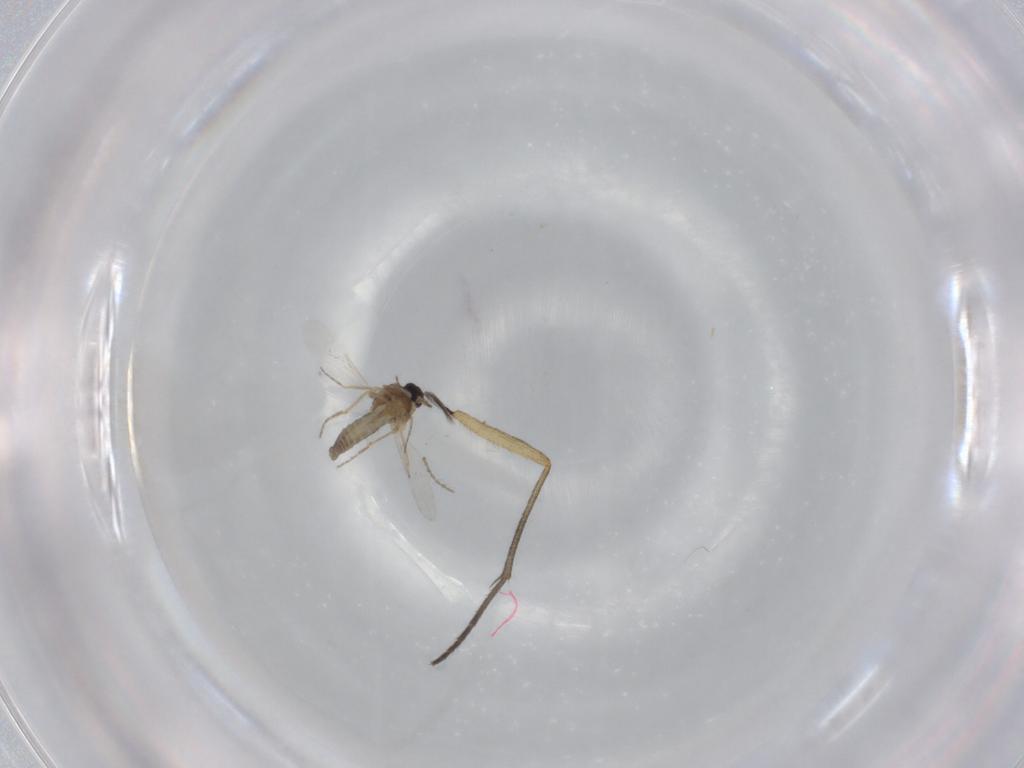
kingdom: Animalia
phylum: Arthropoda
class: Insecta
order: Diptera
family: Ceratopogonidae
